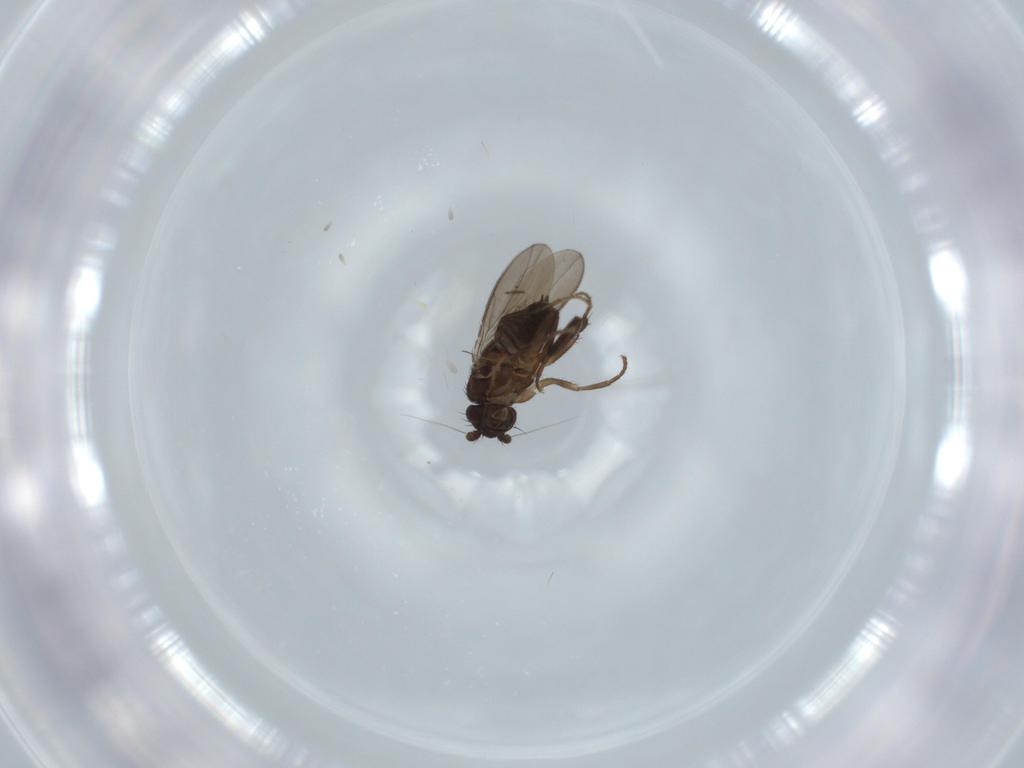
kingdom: Animalia
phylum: Arthropoda
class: Insecta
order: Diptera
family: Sphaeroceridae
